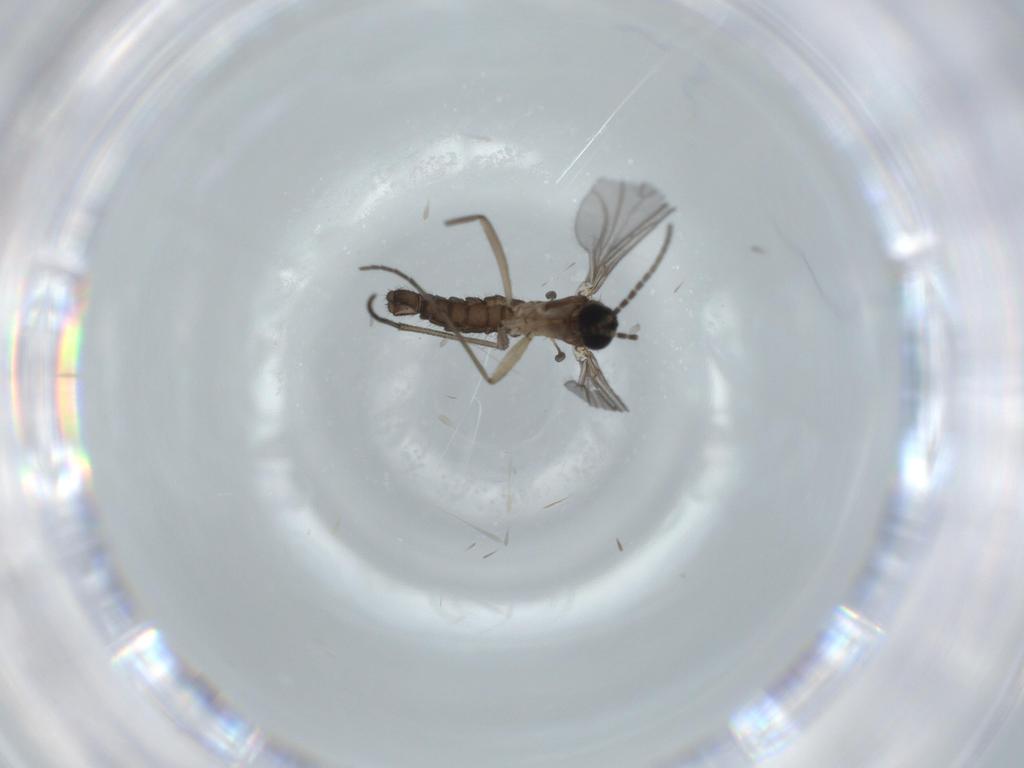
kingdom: Animalia
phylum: Arthropoda
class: Insecta
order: Diptera
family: Sciaridae
